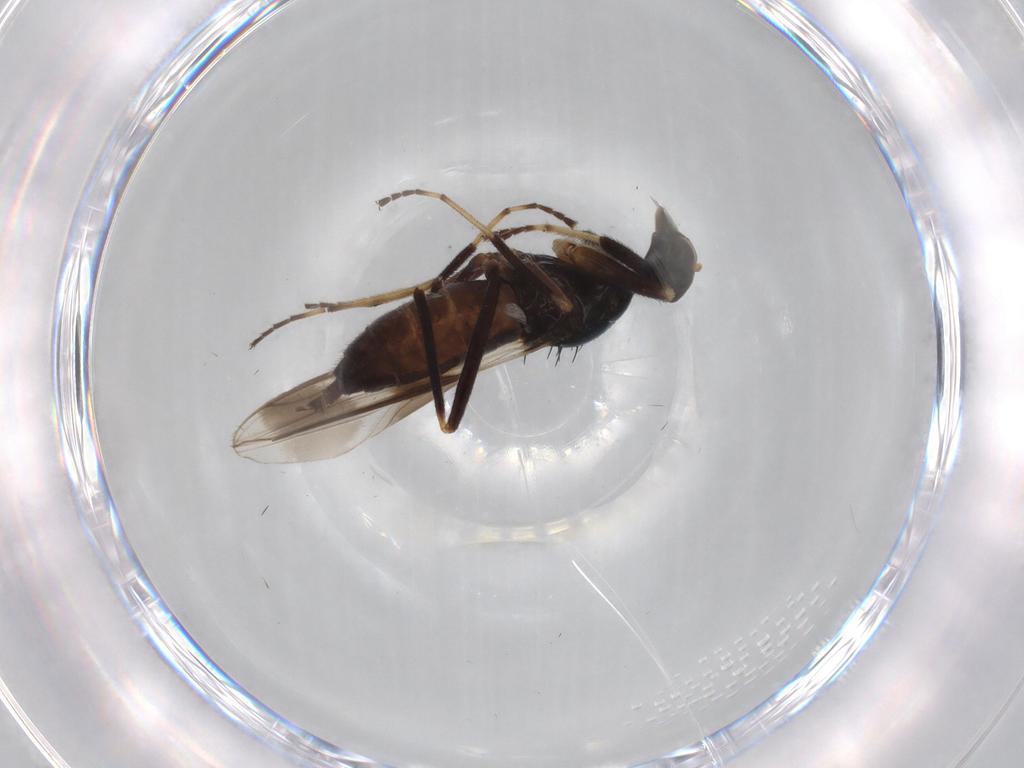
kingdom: Animalia
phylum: Arthropoda
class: Insecta
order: Diptera
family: Hybotidae
